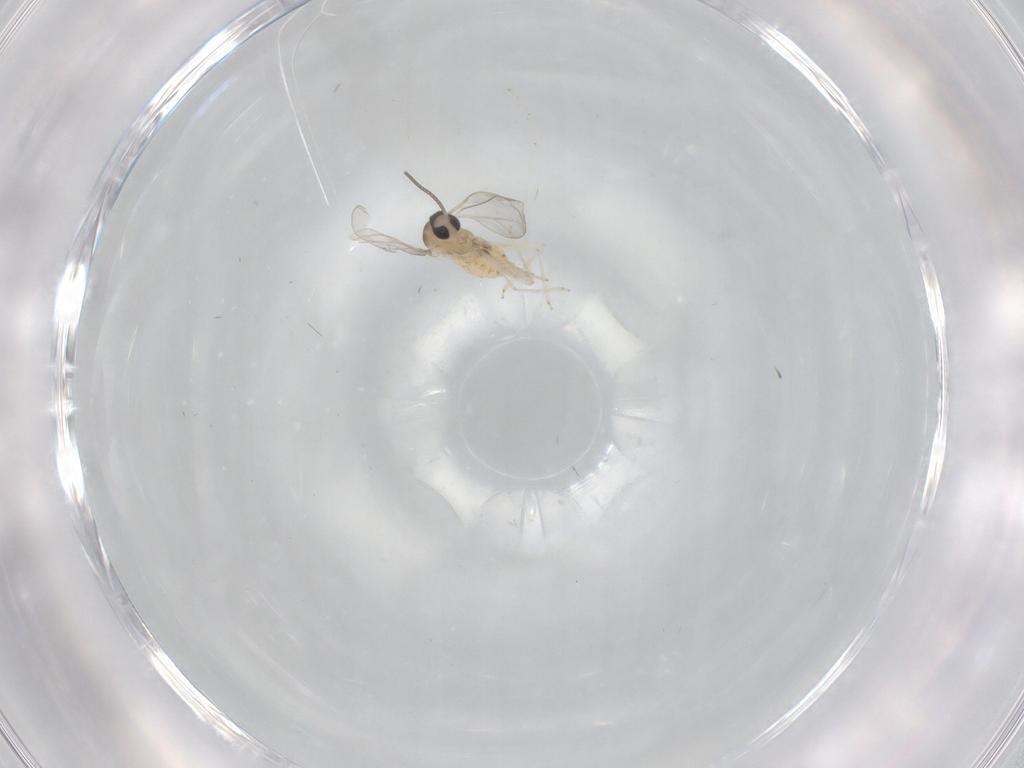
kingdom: Animalia
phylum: Arthropoda
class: Insecta
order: Diptera
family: Cecidomyiidae
